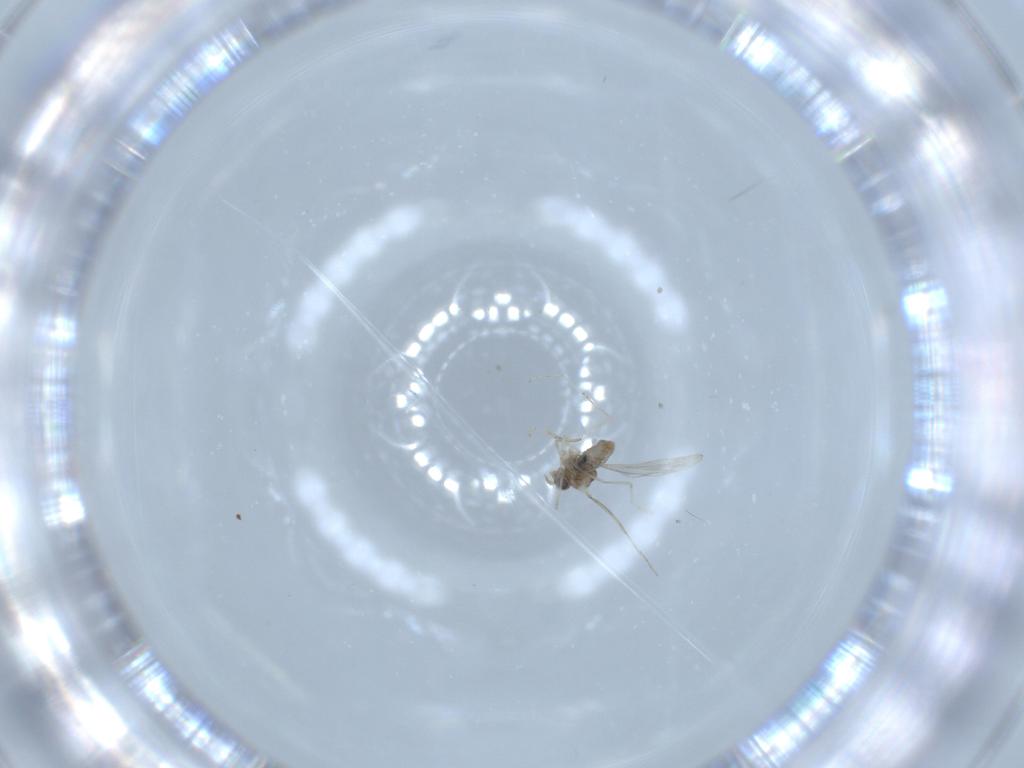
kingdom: Animalia
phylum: Arthropoda
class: Insecta
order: Diptera
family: Cecidomyiidae
